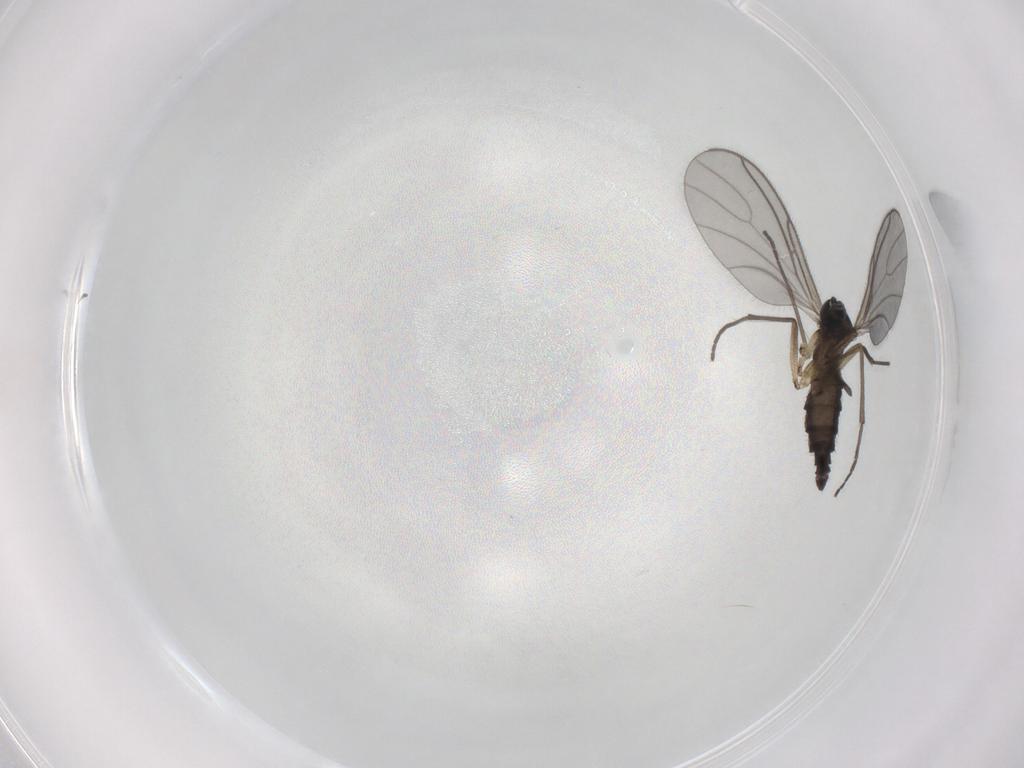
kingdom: Animalia
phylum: Arthropoda
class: Insecta
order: Diptera
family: Sciaridae
